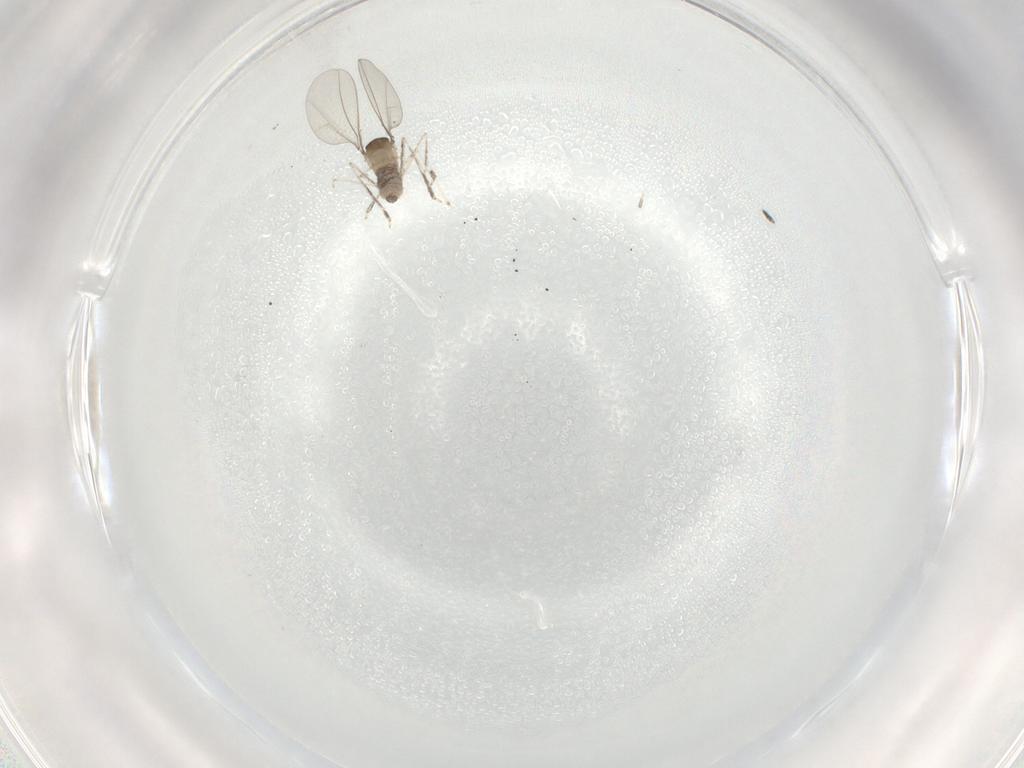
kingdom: Animalia
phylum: Arthropoda
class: Insecta
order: Diptera
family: Cecidomyiidae
